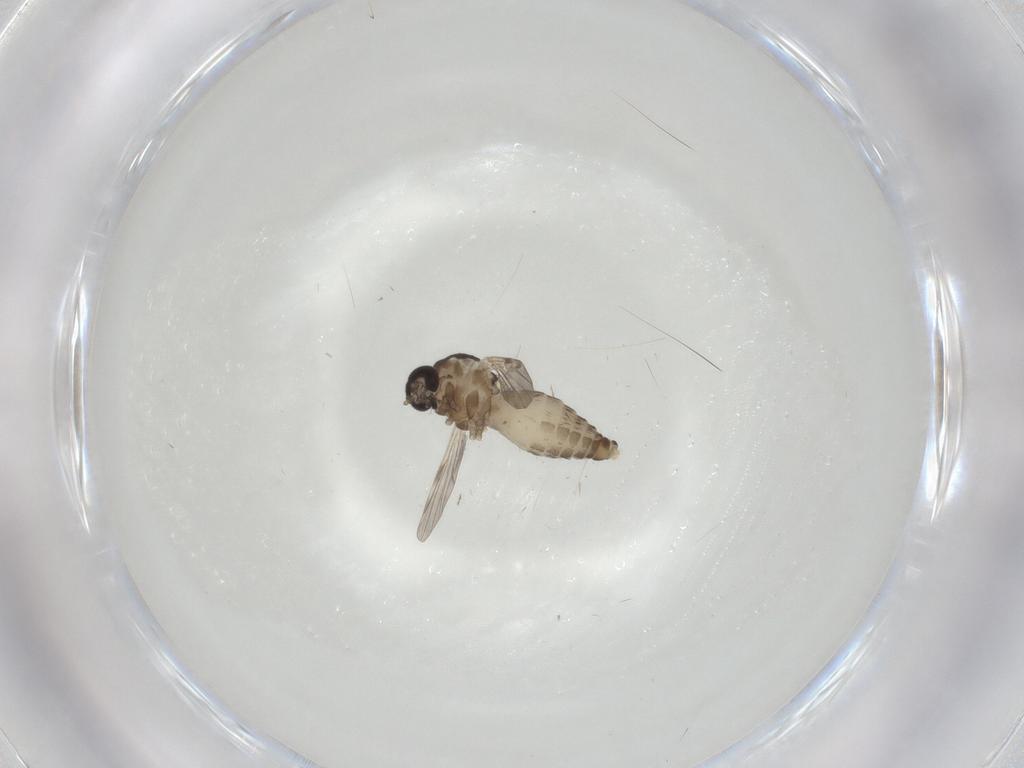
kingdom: Animalia
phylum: Arthropoda
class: Insecta
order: Diptera
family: Ceratopogonidae
